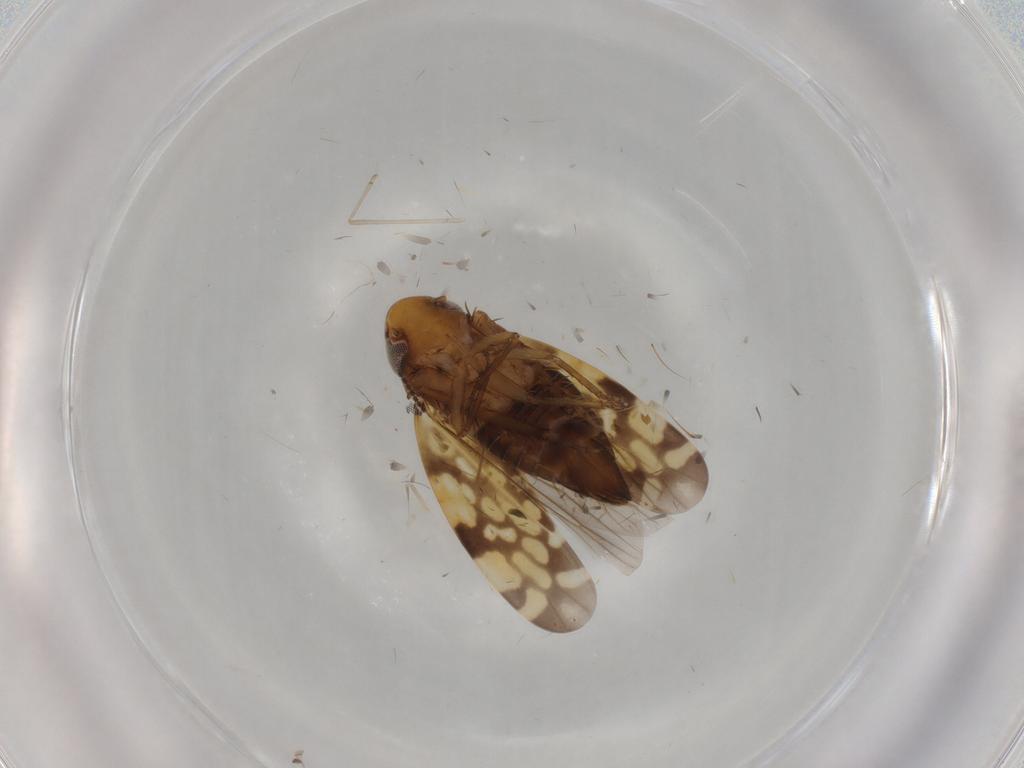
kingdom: Animalia
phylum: Arthropoda
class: Insecta
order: Hemiptera
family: Cicadellidae
